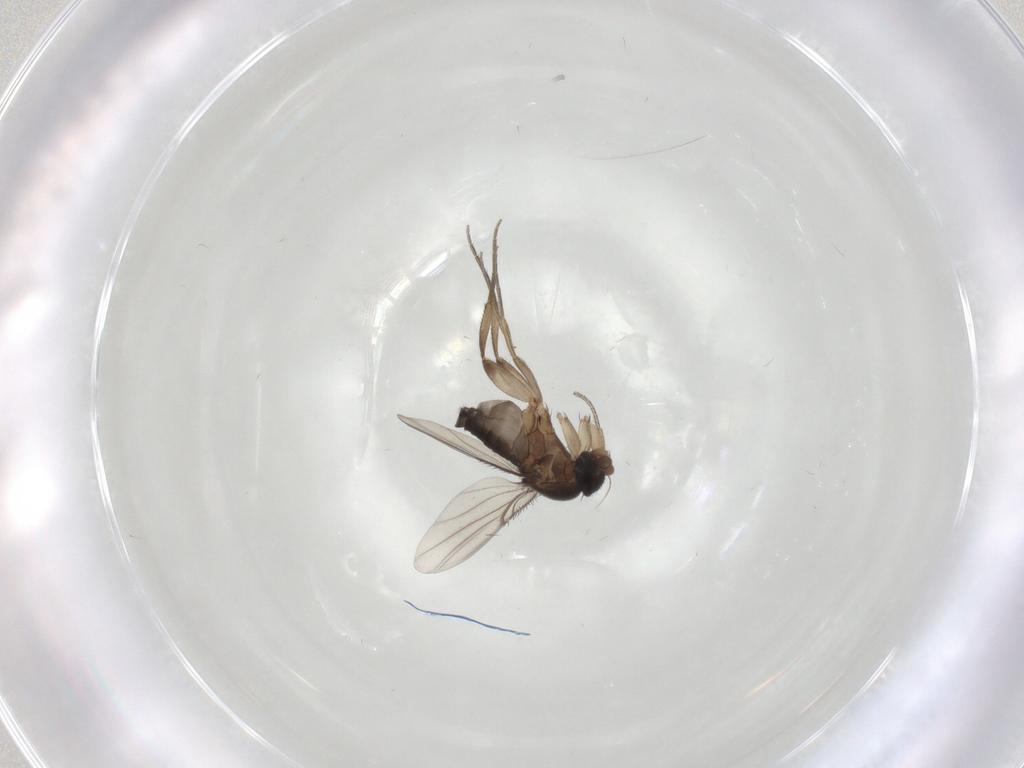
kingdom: Animalia
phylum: Arthropoda
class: Insecta
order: Diptera
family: Phoridae
